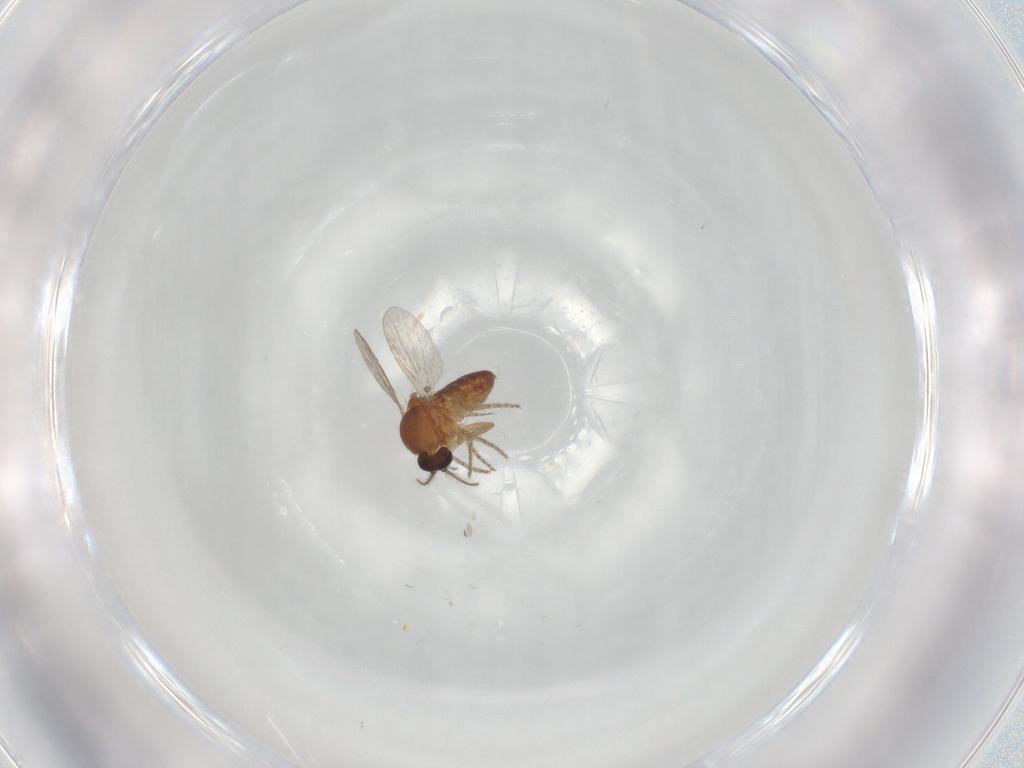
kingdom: Animalia
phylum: Arthropoda
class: Insecta
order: Diptera
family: Ceratopogonidae
